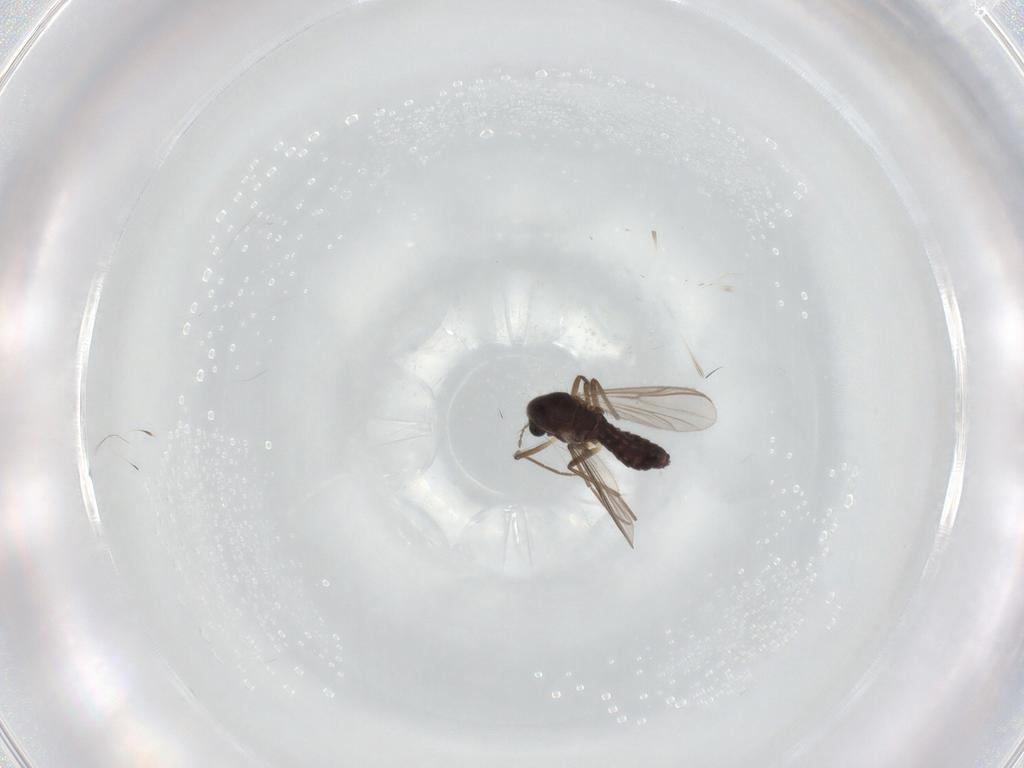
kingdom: Animalia
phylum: Arthropoda
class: Insecta
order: Diptera
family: Chironomidae
